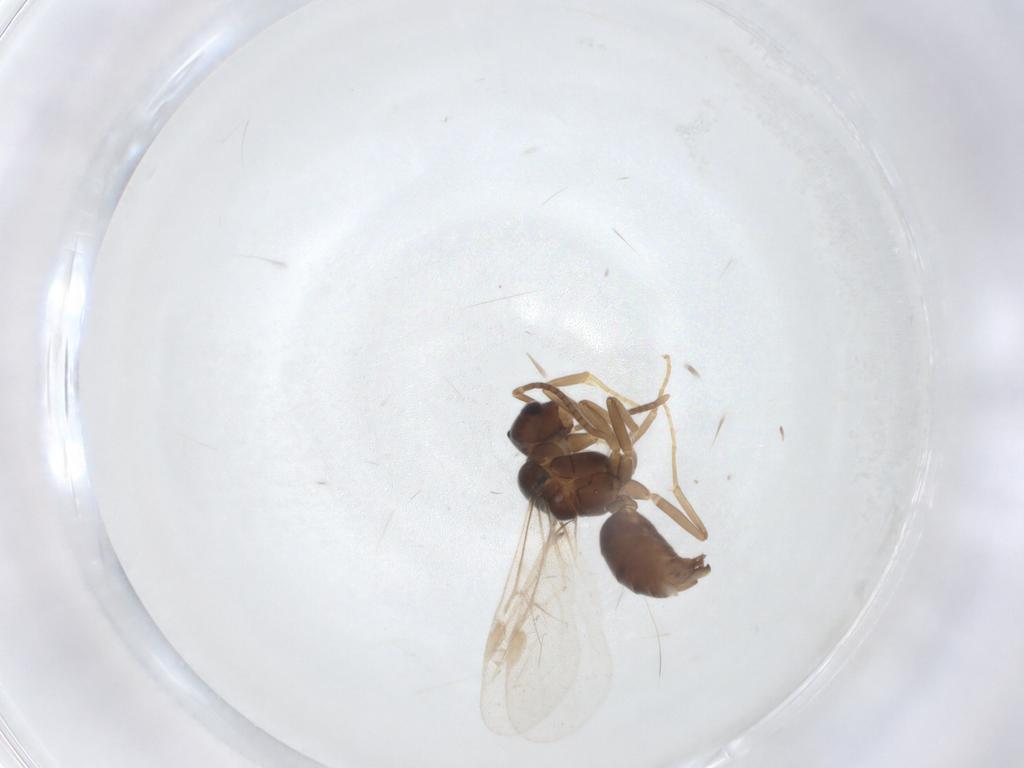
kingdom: Animalia
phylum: Arthropoda
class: Insecta
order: Hymenoptera
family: Formicidae
